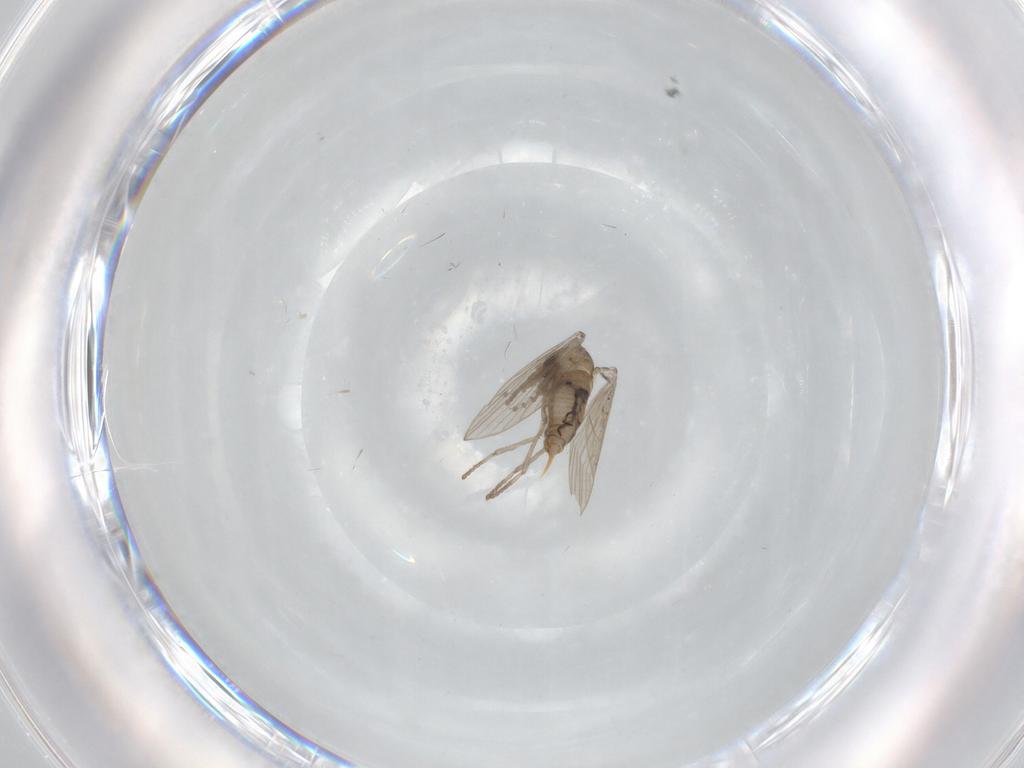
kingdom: Animalia
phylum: Arthropoda
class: Insecta
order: Diptera
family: Psychodidae
